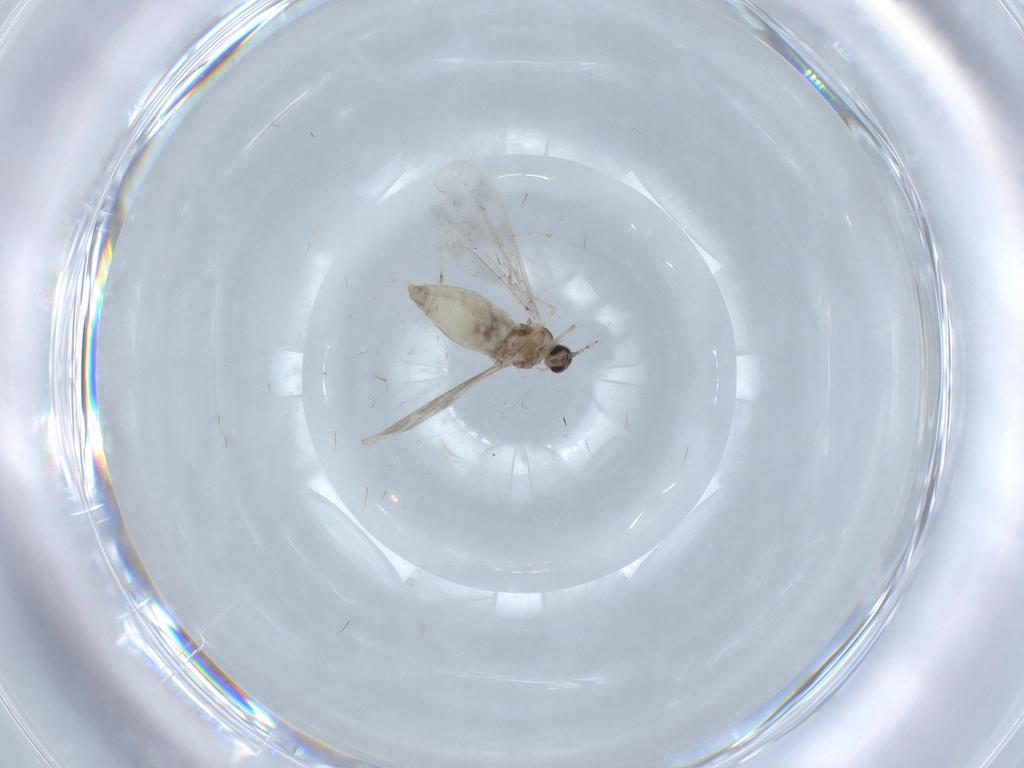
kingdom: Animalia
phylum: Arthropoda
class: Insecta
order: Diptera
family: Cecidomyiidae
